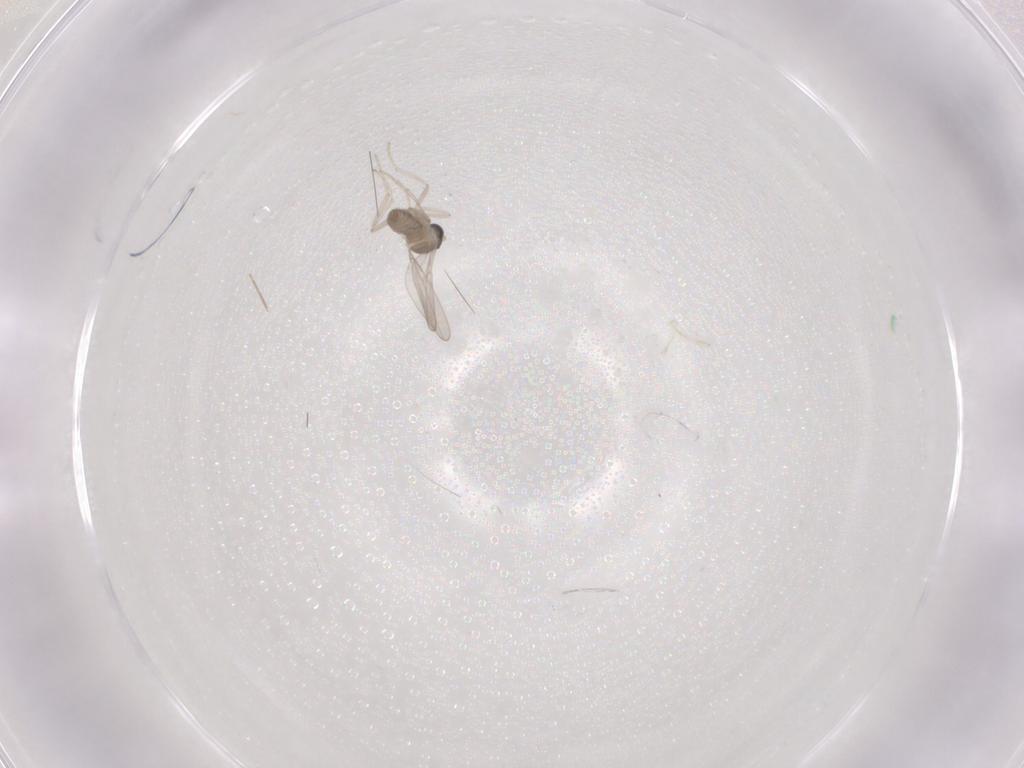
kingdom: Animalia
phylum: Arthropoda
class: Insecta
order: Diptera
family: Cecidomyiidae
